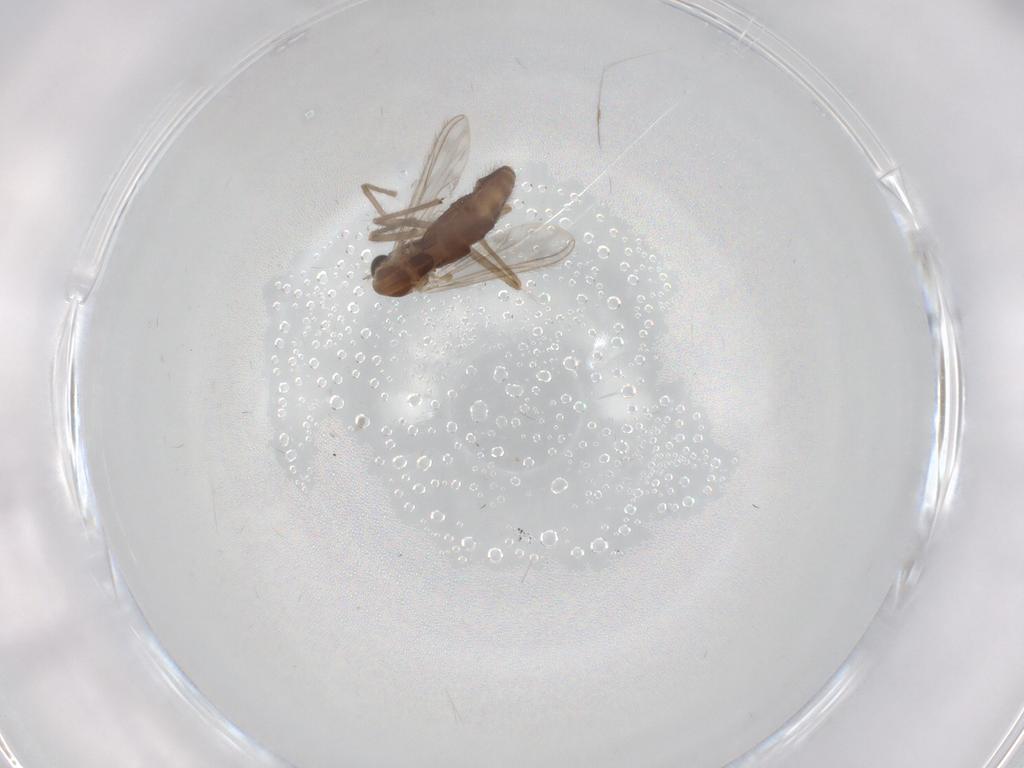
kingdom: Animalia
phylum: Arthropoda
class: Insecta
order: Diptera
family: Chironomidae
